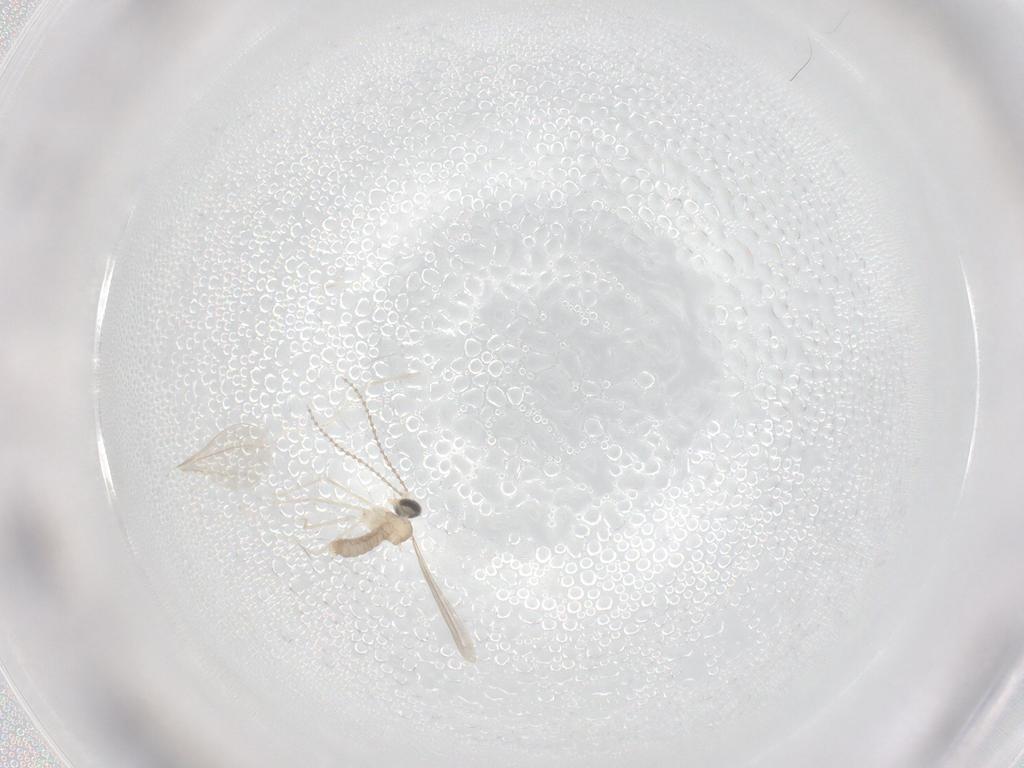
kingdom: Animalia
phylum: Arthropoda
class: Insecta
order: Diptera
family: Cecidomyiidae
